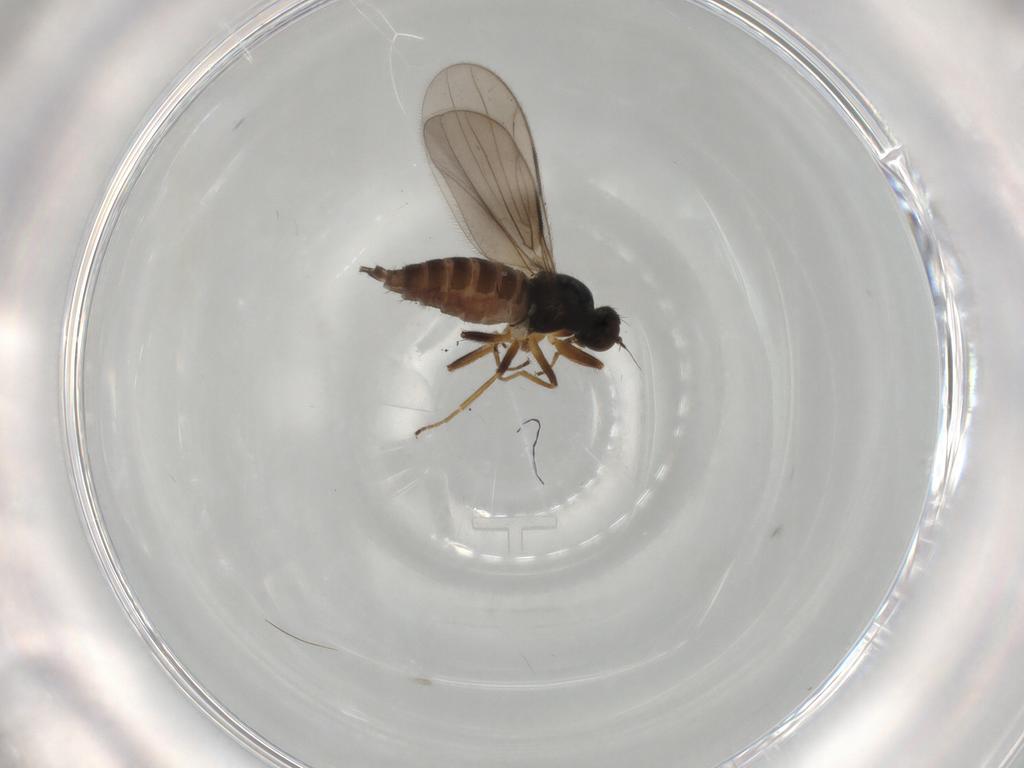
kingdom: Animalia
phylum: Arthropoda
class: Insecta
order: Diptera
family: Hybotidae
